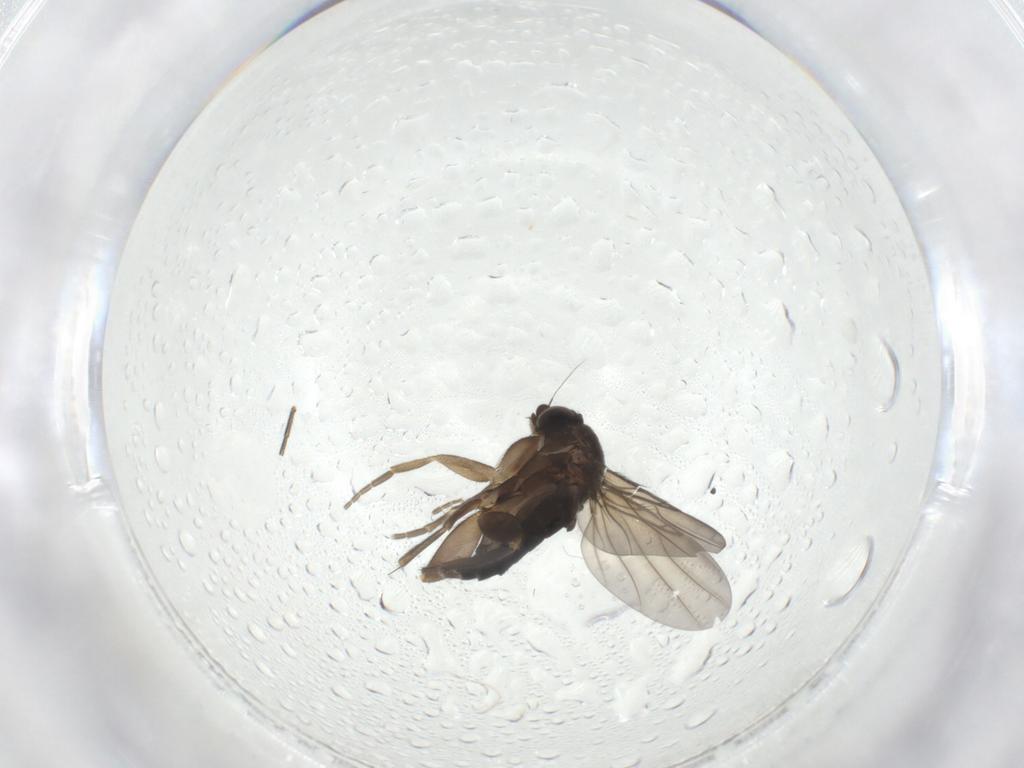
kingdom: Animalia
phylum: Arthropoda
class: Insecta
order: Diptera
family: Phoridae
